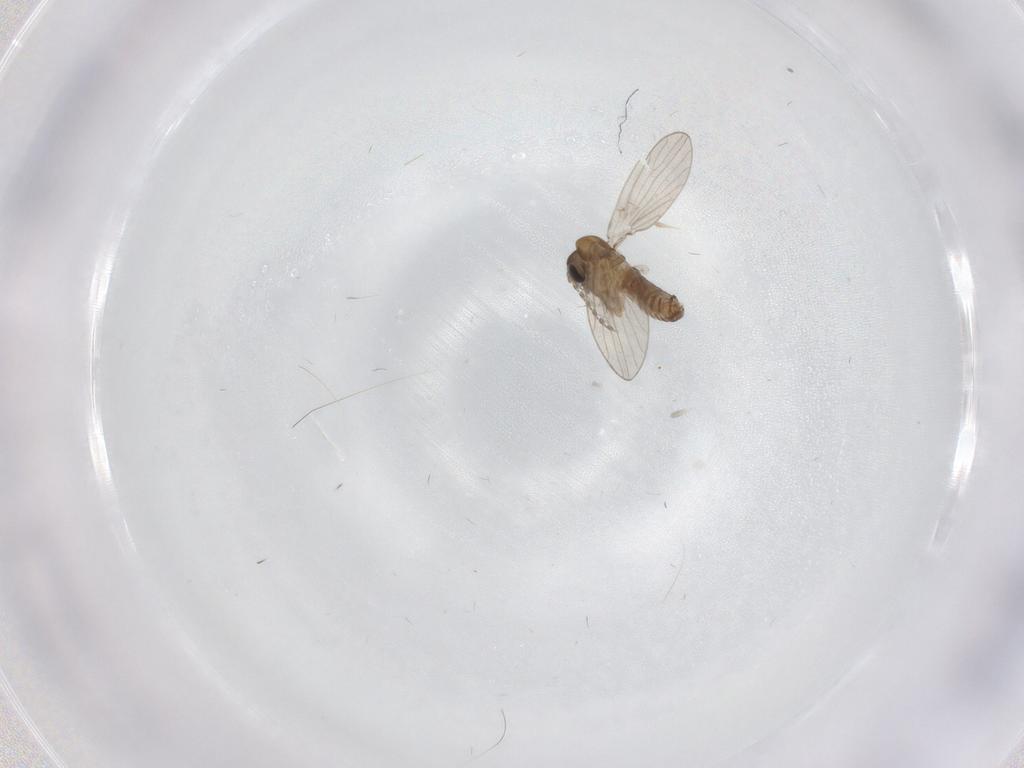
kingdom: Animalia
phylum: Arthropoda
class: Insecta
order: Diptera
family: Psychodidae
